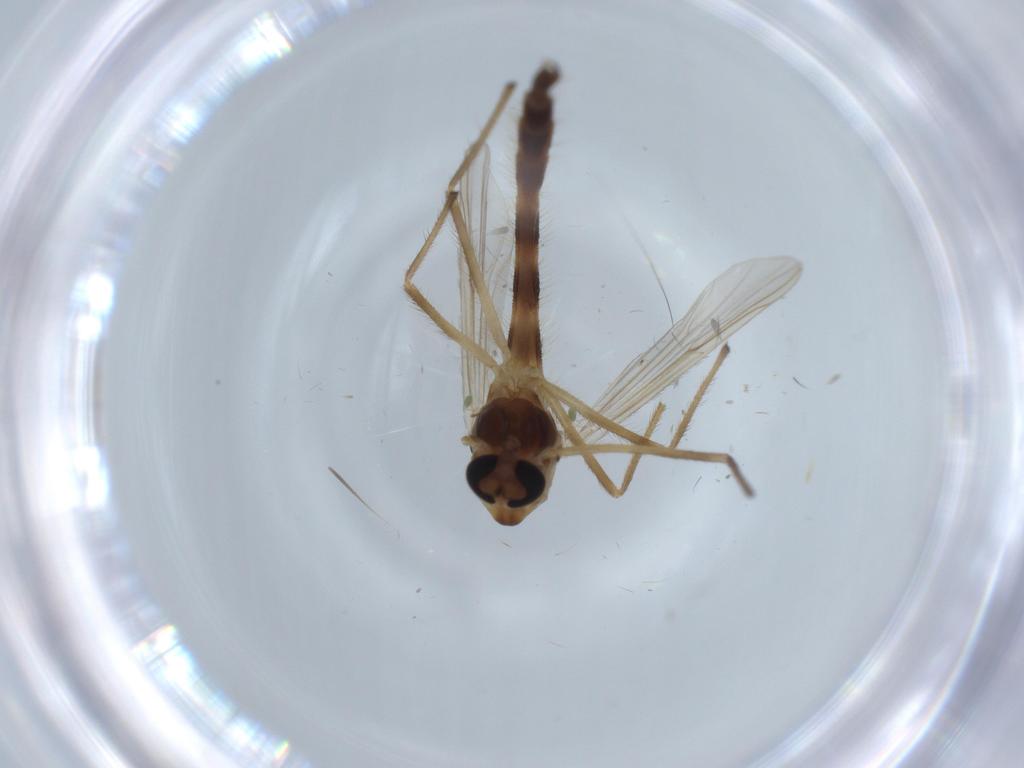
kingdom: Animalia
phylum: Arthropoda
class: Insecta
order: Diptera
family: Chironomidae
